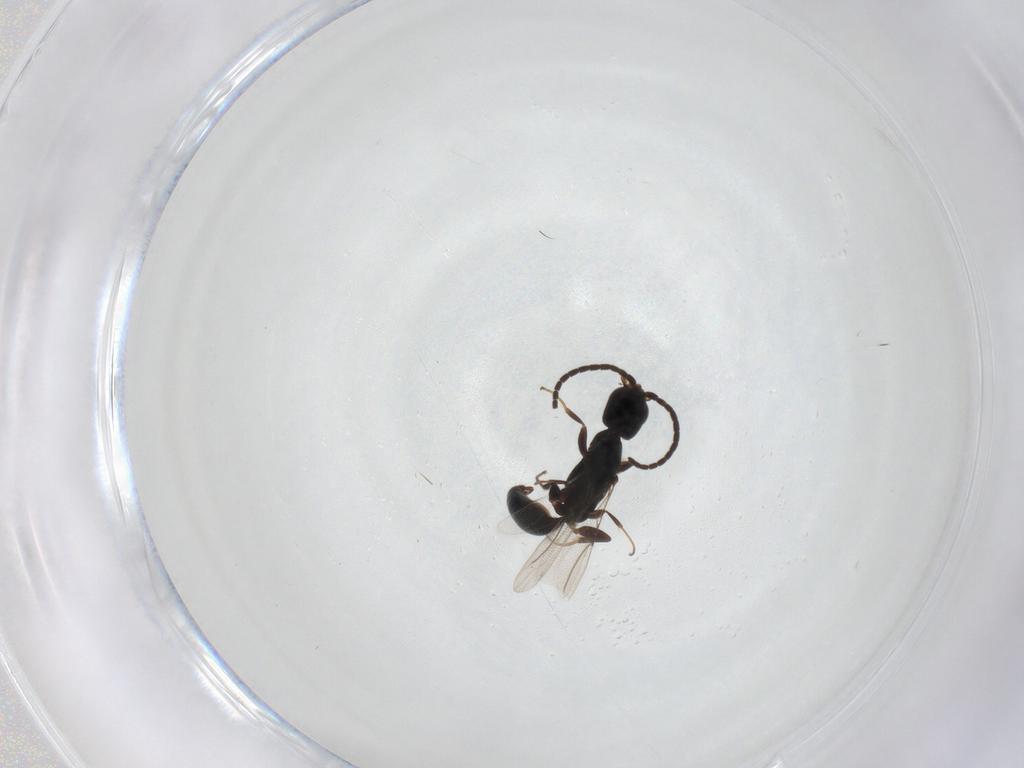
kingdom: Animalia
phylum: Arthropoda
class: Insecta
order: Hymenoptera
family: Bethylidae
